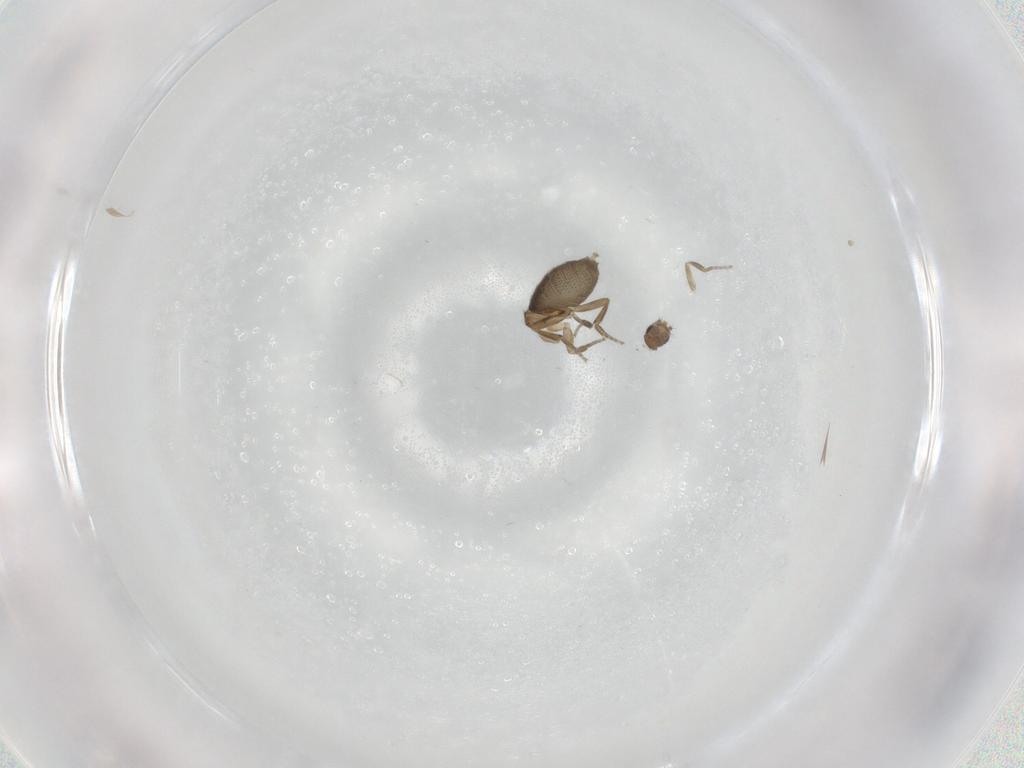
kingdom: Animalia
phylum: Arthropoda
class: Insecta
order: Diptera
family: Phoridae
